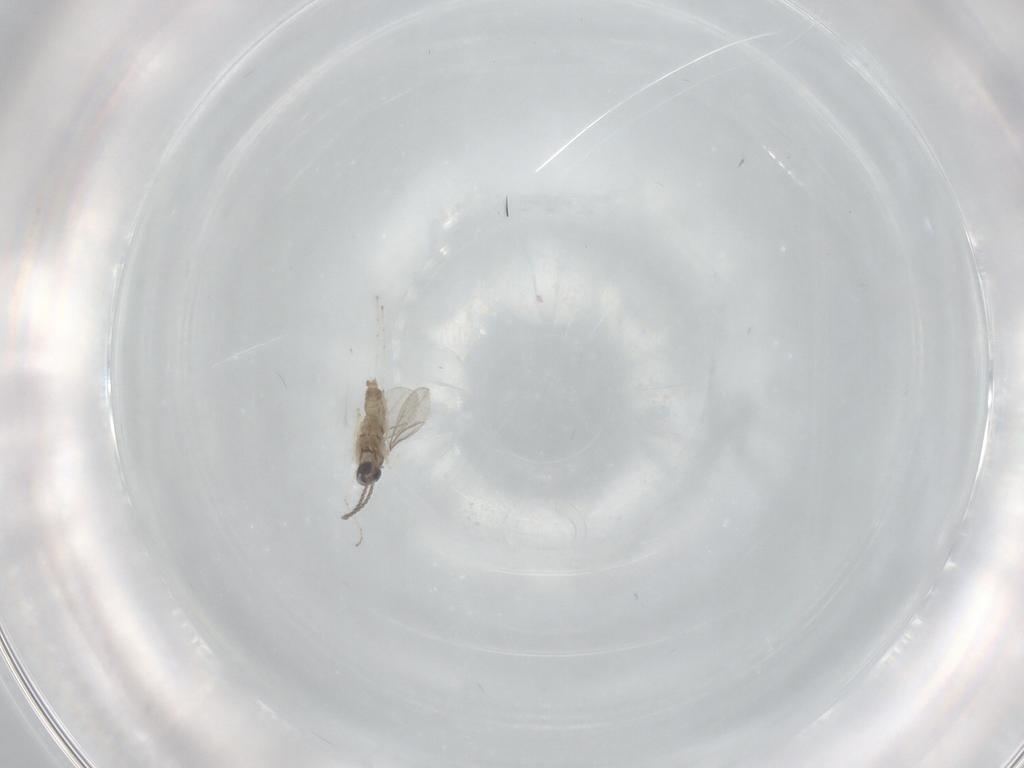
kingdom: Animalia
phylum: Arthropoda
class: Insecta
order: Diptera
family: Cecidomyiidae
